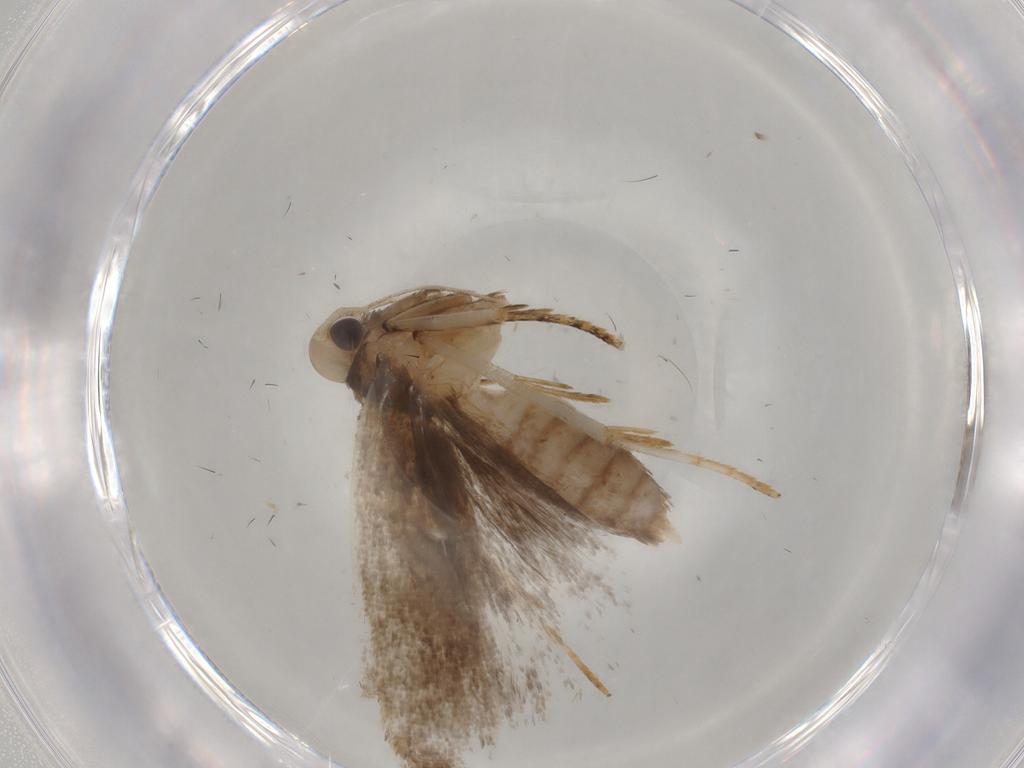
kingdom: Animalia
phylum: Arthropoda
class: Insecta
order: Lepidoptera
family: Gelechiidae
